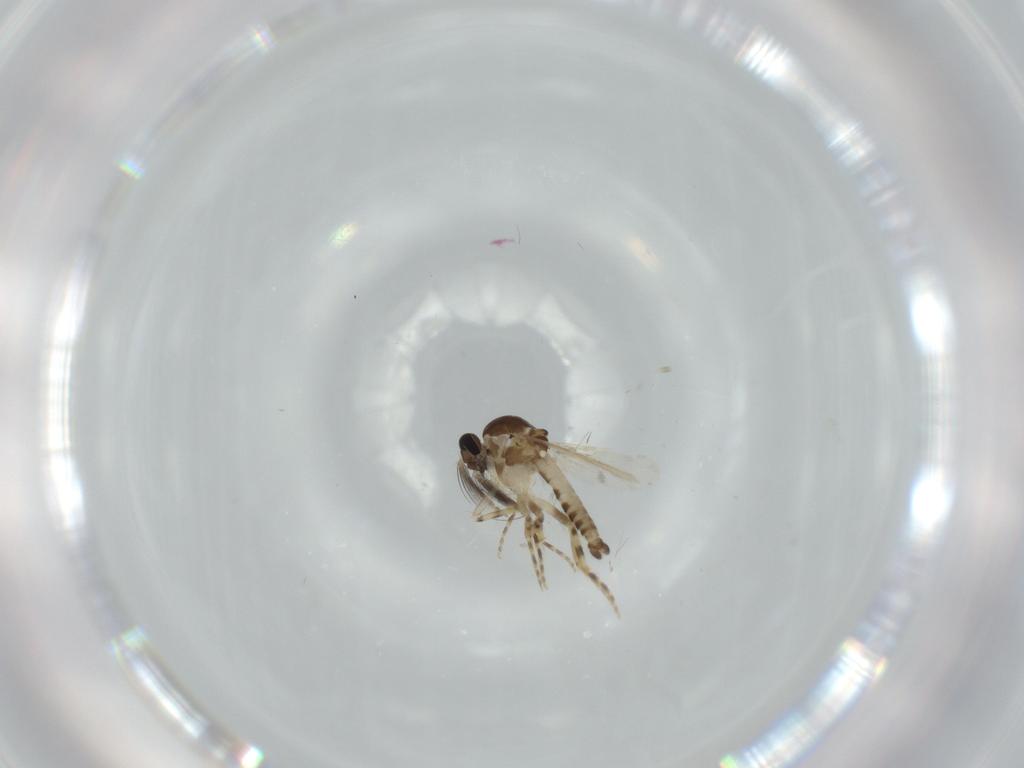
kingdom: Animalia
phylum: Arthropoda
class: Insecta
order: Diptera
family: Ceratopogonidae
